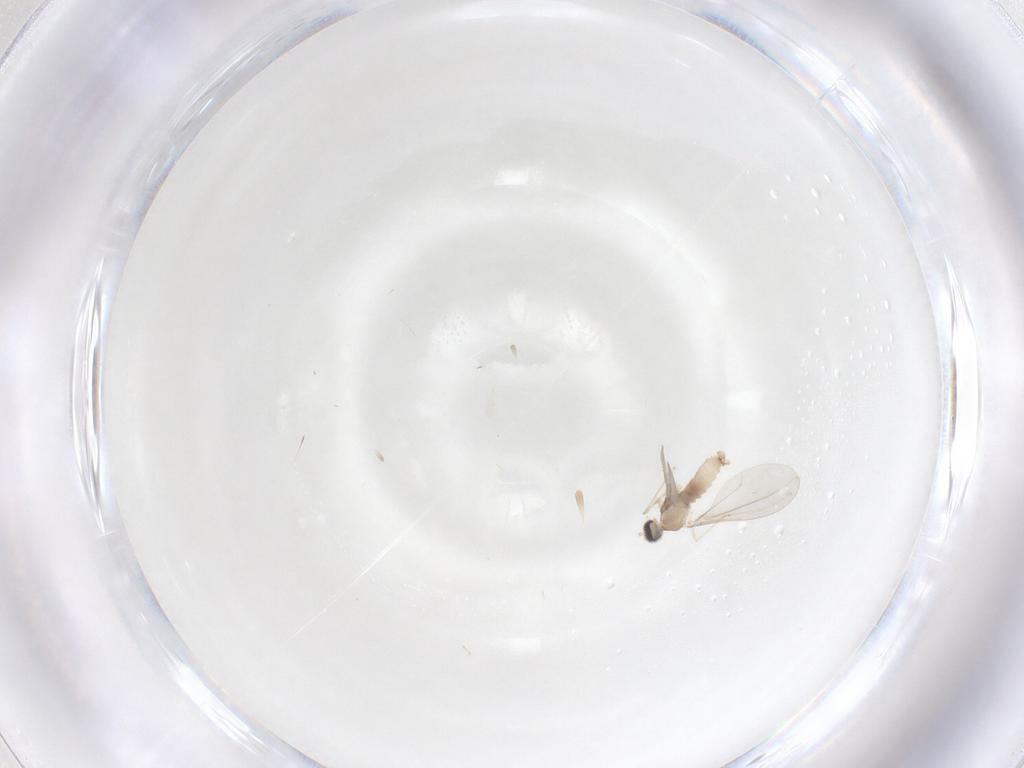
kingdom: Animalia
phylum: Arthropoda
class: Insecta
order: Diptera
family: Cecidomyiidae
